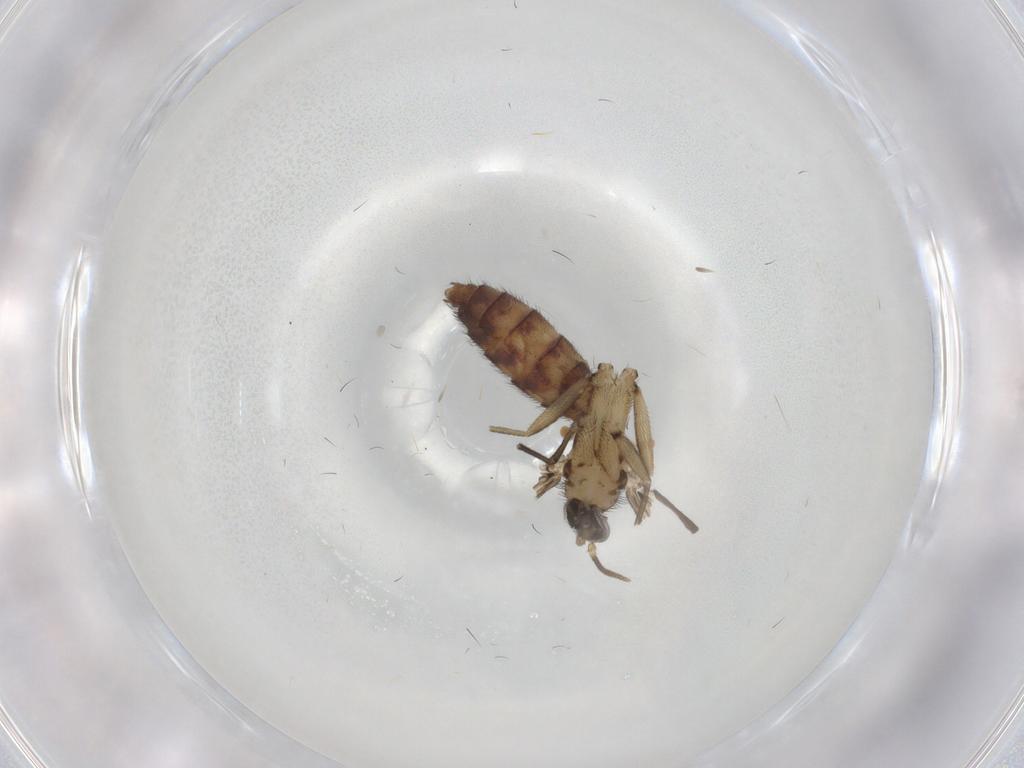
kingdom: Animalia
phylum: Arthropoda
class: Insecta
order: Diptera
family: Keroplatidae
